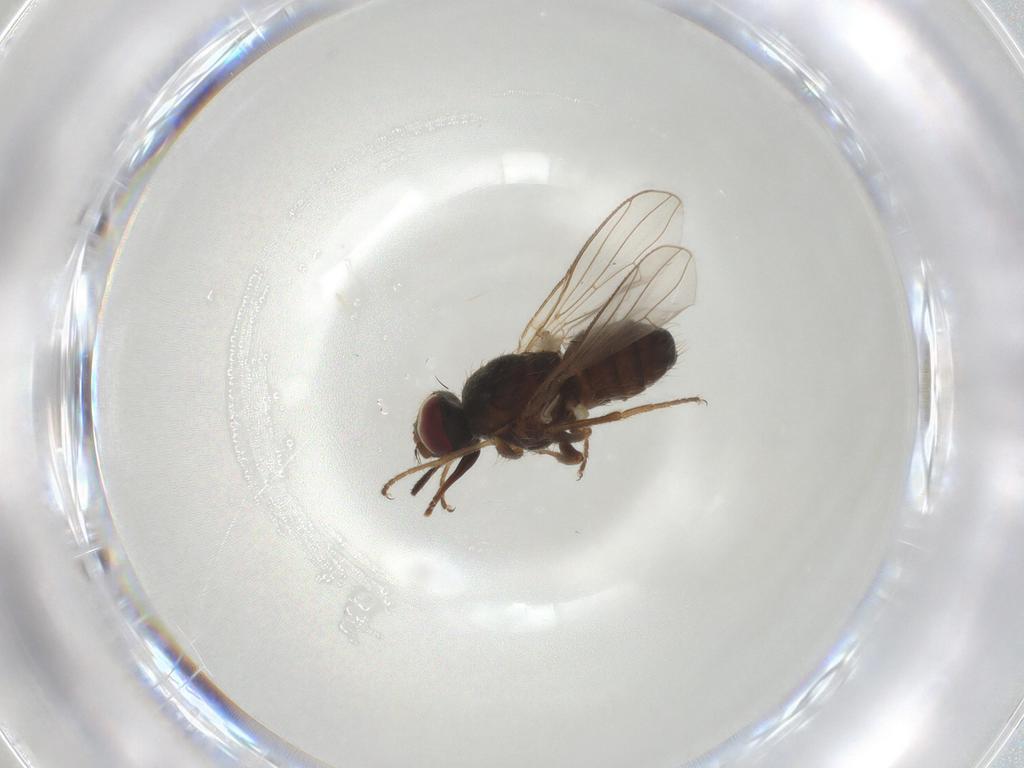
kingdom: Animalia
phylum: Arthropoda
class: Insecta
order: Diptera
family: Muscidae
